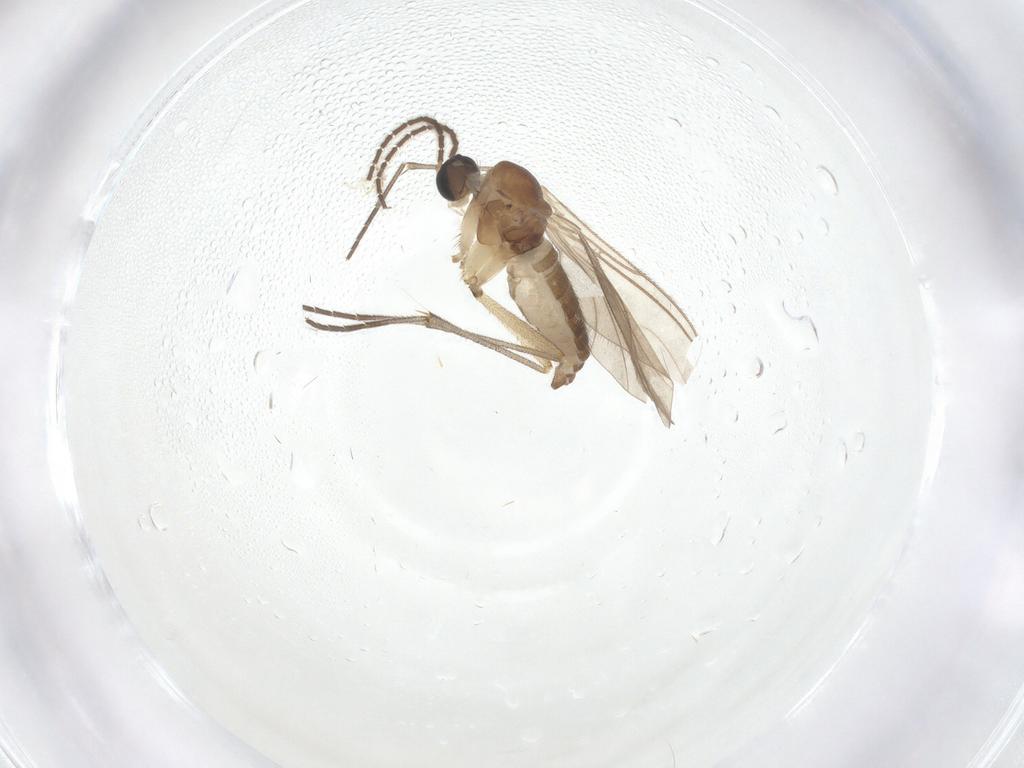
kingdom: Animalia
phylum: Arthropoda
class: Insecta
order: Diptera
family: Sciaridae
